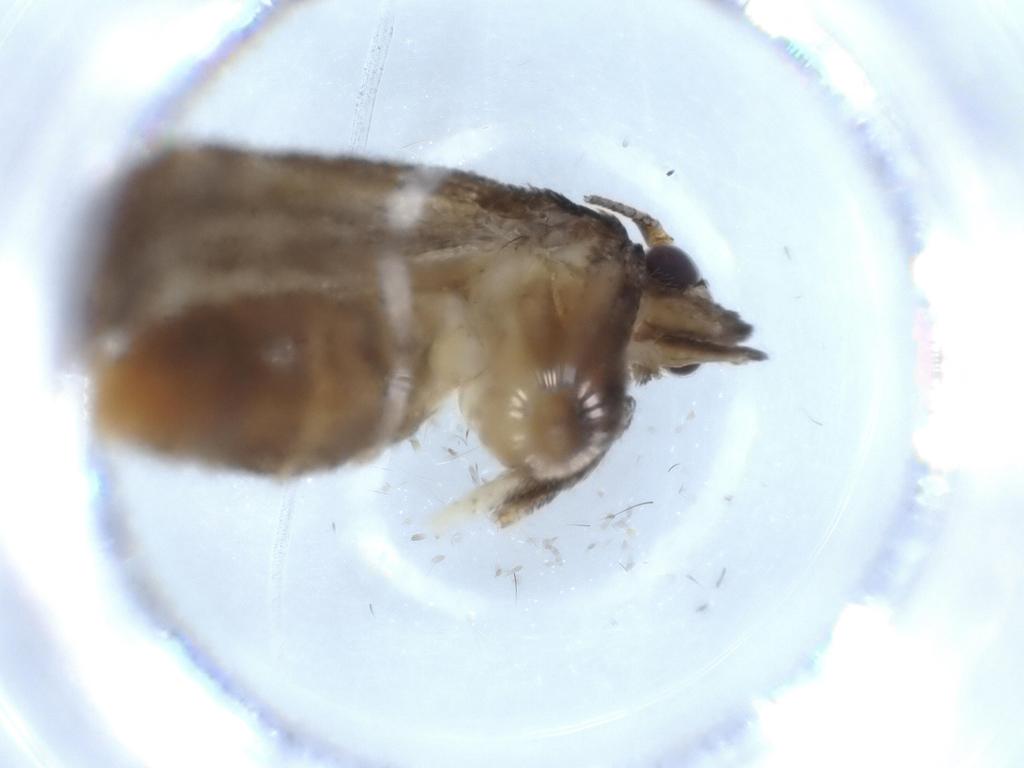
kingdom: Animalia
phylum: Arthropoda
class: Insecta
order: Lepidoptera
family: Blastobasidae
